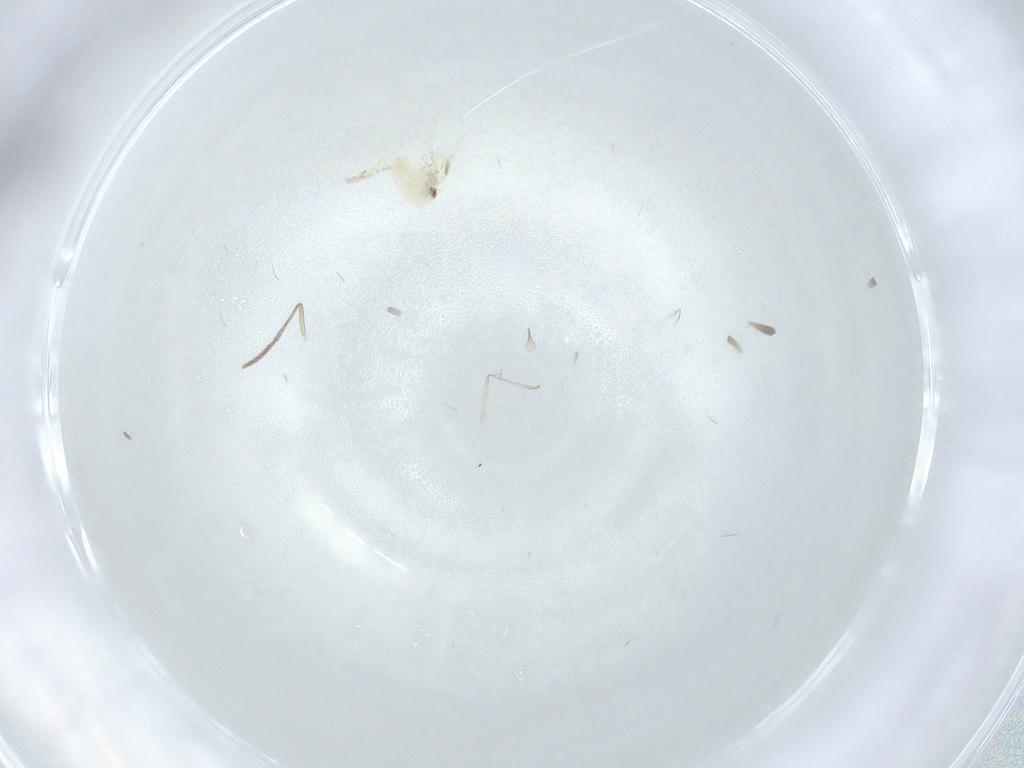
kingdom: Animalia
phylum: Arthropoda
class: Insecta
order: Diptera
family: Cecidomyiidae
